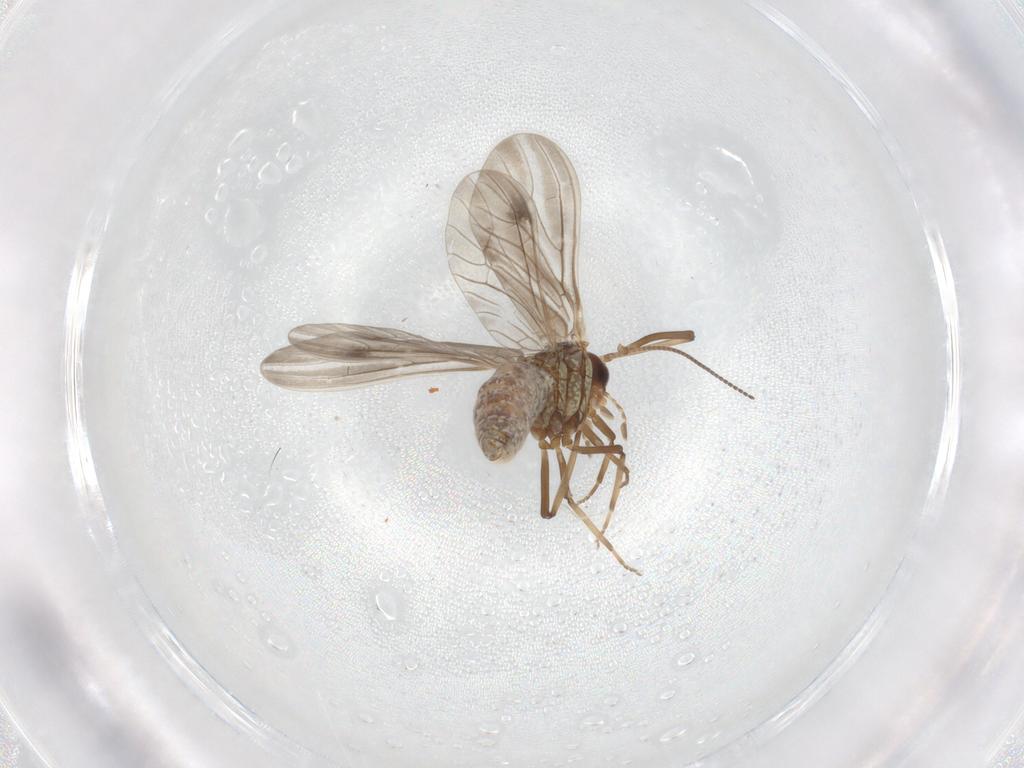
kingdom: Animalia
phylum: Arthropoda
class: Insecta
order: Neuroptera
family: Coniopterygidae
